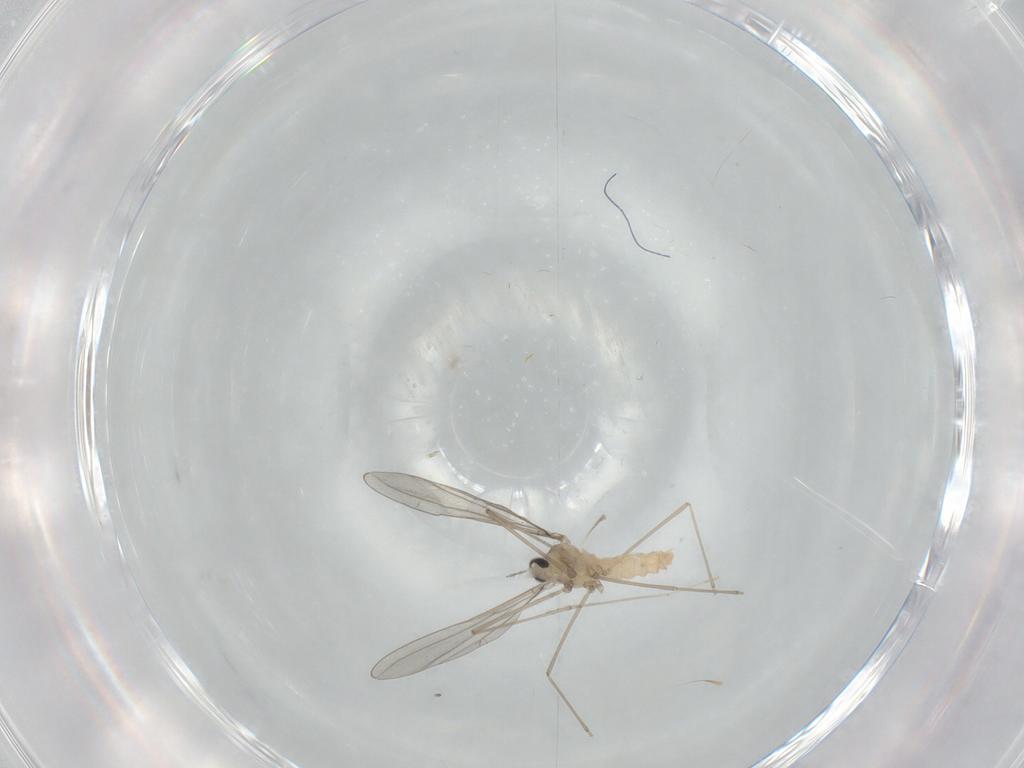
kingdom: Animalia
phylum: Arthropoda
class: Insecta
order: Diptera
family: Cecidomyiidae
